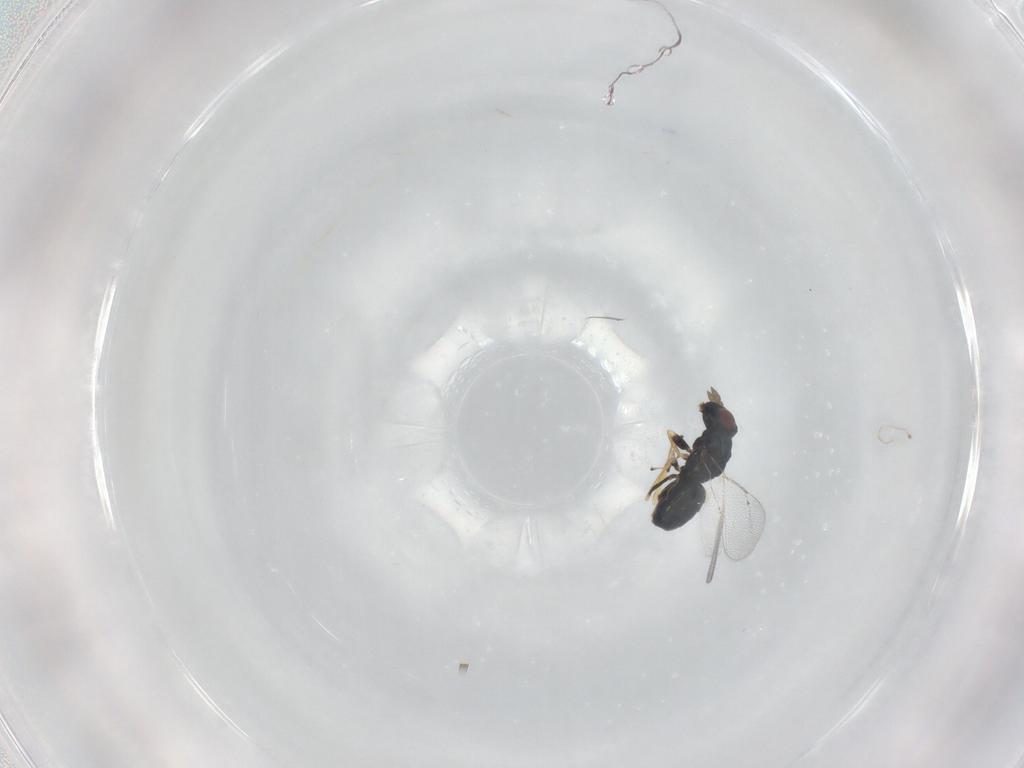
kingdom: Animalia
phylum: Arthropoda
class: Insecta
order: Hymenoptera
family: Eulophidae
